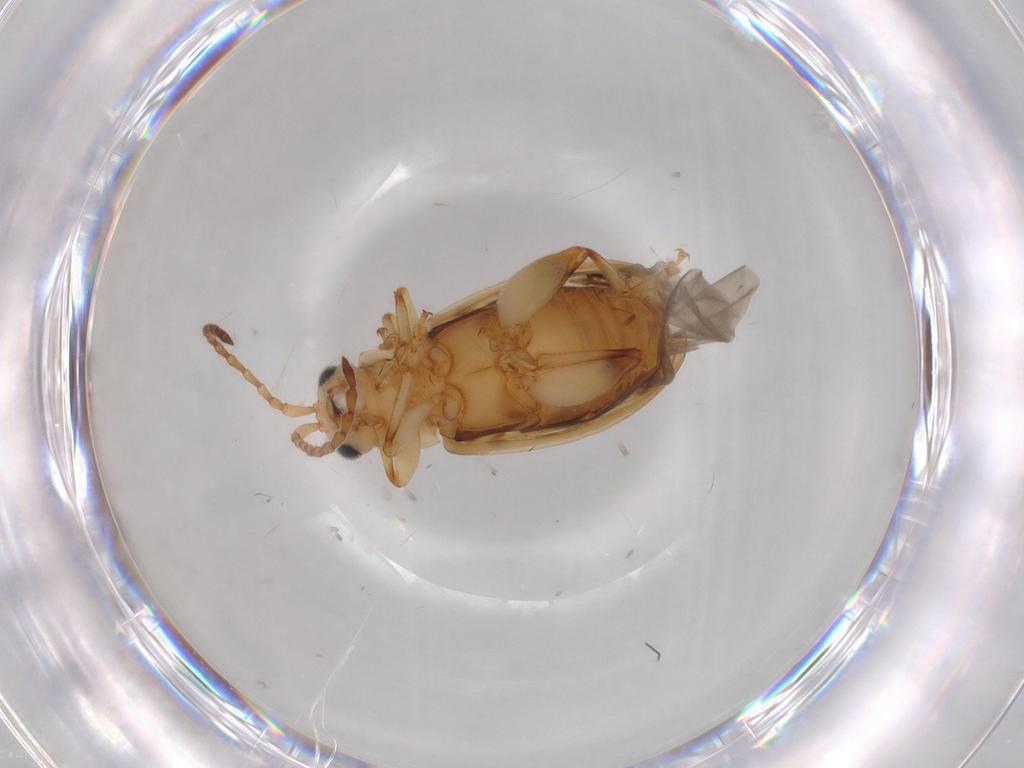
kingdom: Animalia
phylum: Arthropoda
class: Insecta
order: Coleoptera
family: Chrysomelidae
